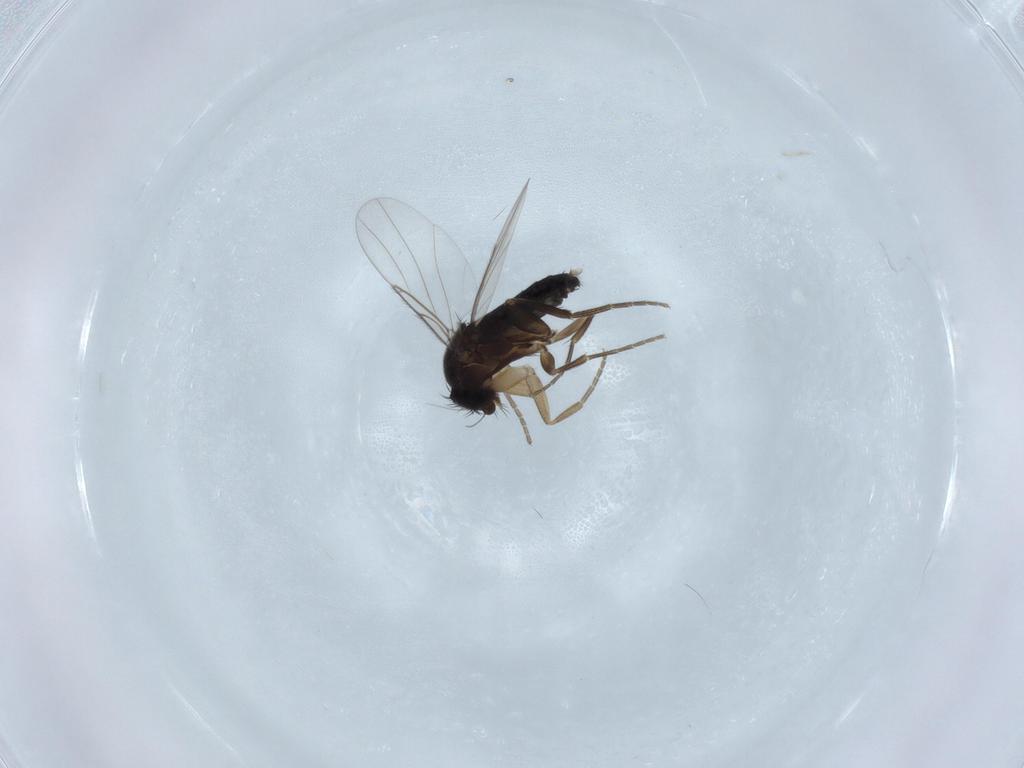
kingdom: Animalia
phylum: Arthropoda
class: Insecta
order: Diptera
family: Phoridae
